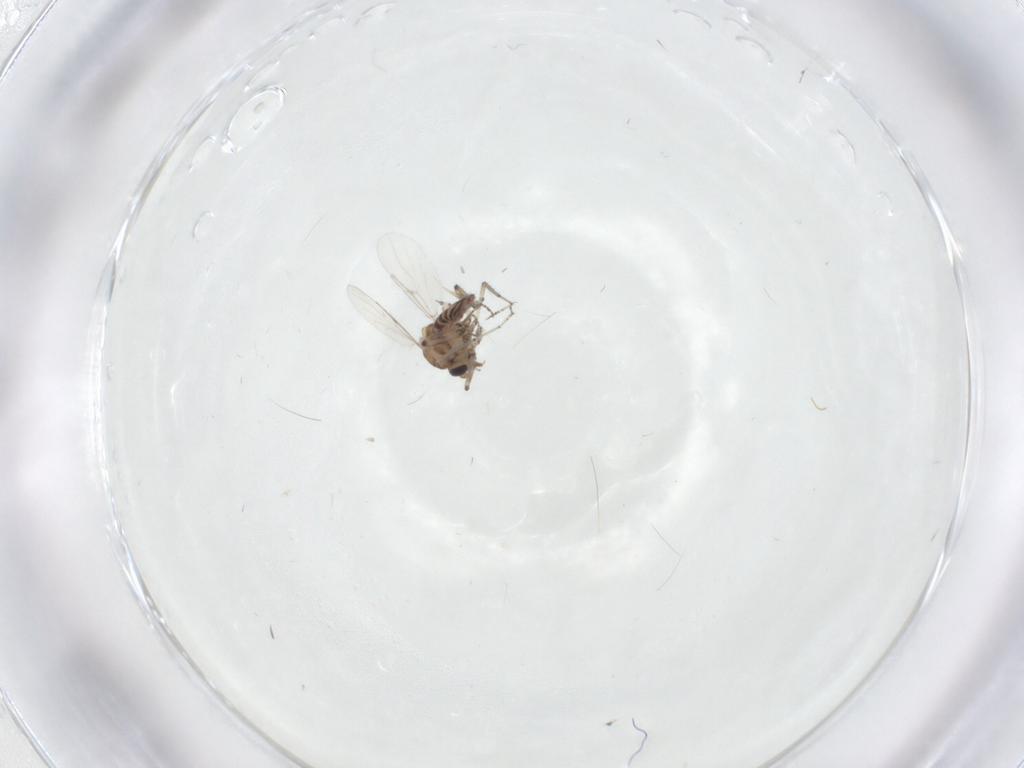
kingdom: Animalia
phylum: Arthropoda
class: Insecta
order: Diptera
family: Ceratopogonidae
